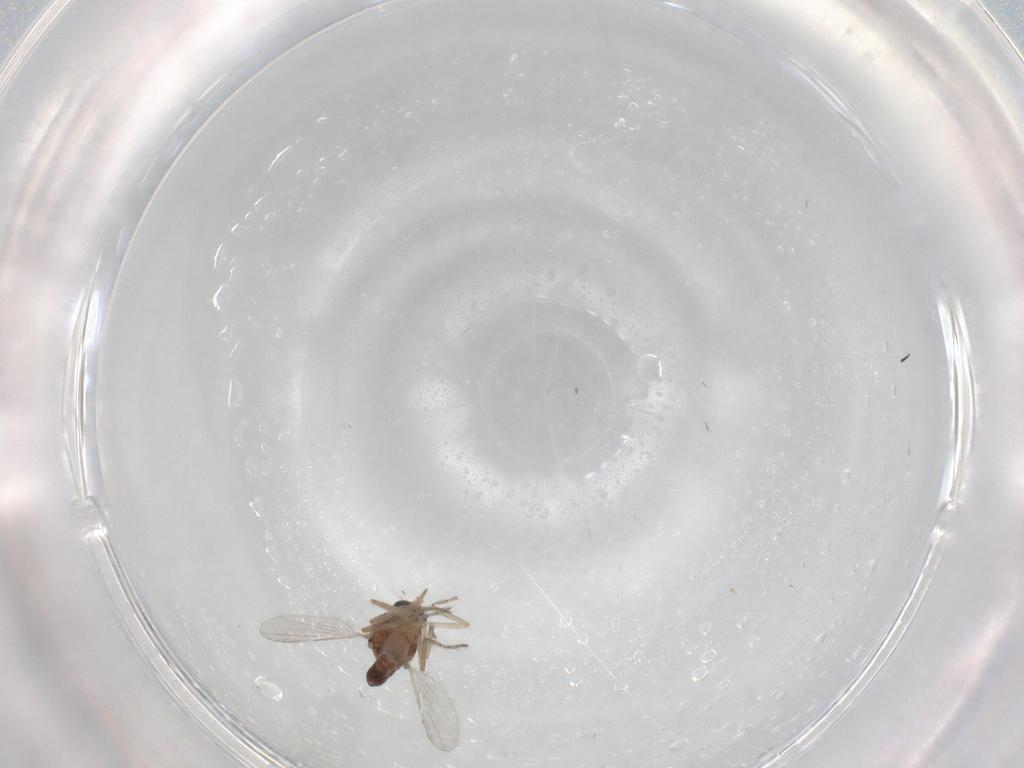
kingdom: Animalia
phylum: Arthropoda
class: Insecta
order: Diptera
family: Ceratopogonidae
